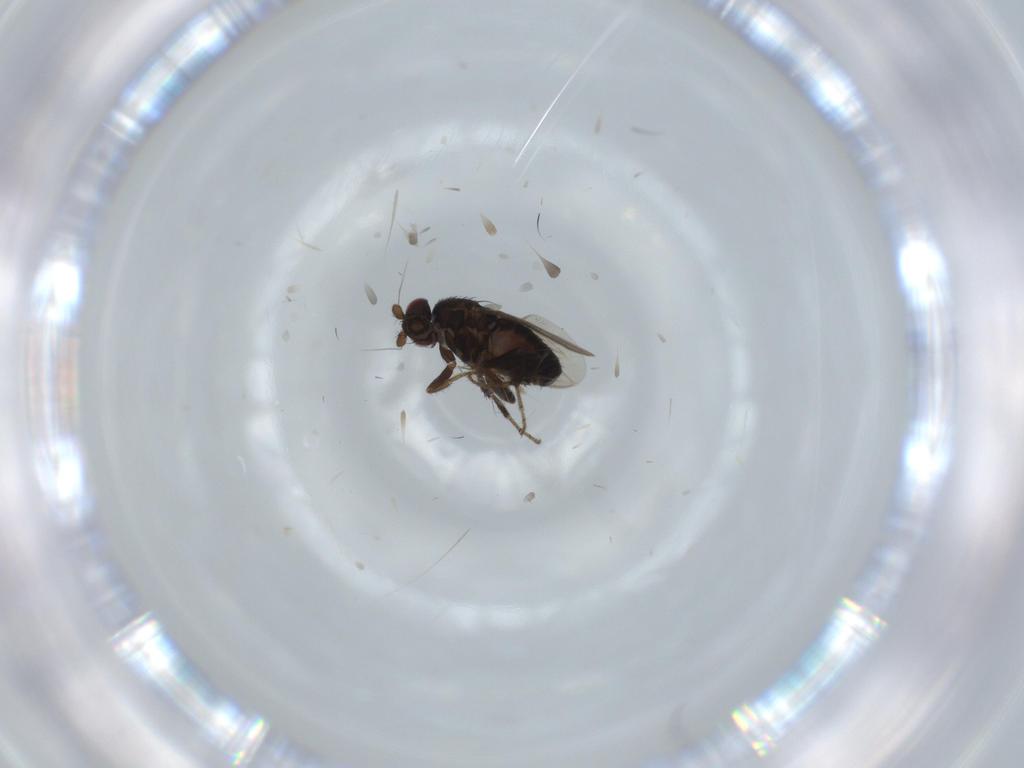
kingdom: Animalia
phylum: Arthropoda
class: Insecta
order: Diptera
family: Sphaeroceridae
